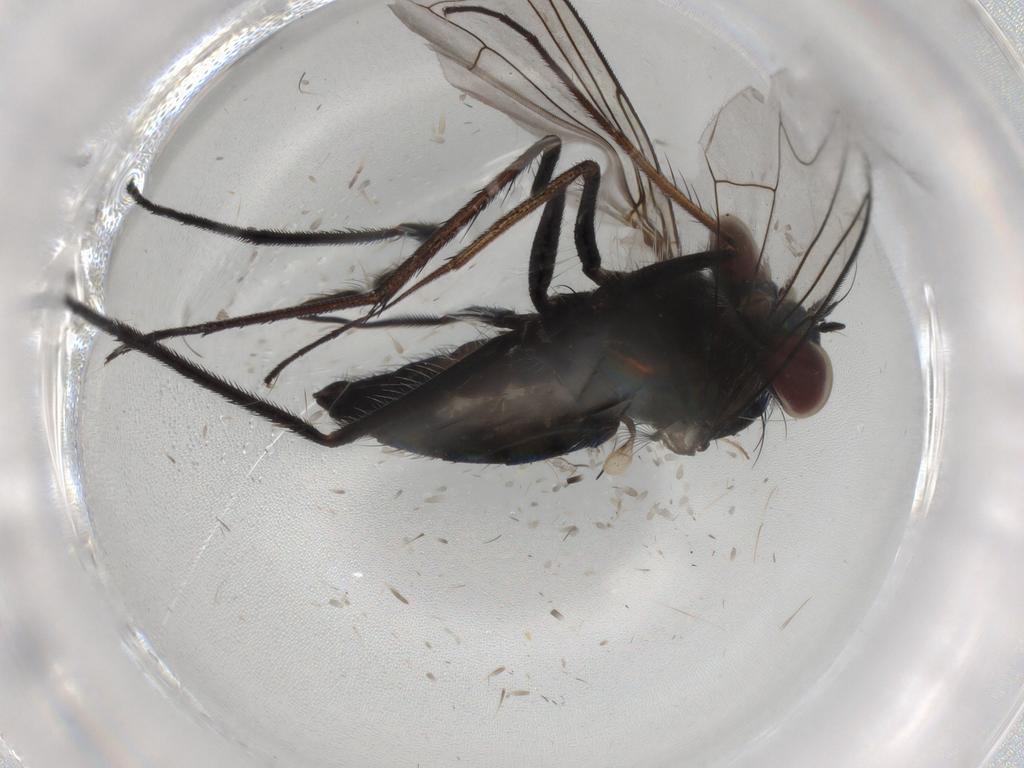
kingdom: Animalia
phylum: Arthropoda
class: Insecta
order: Diptera
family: Dolichopodidae
